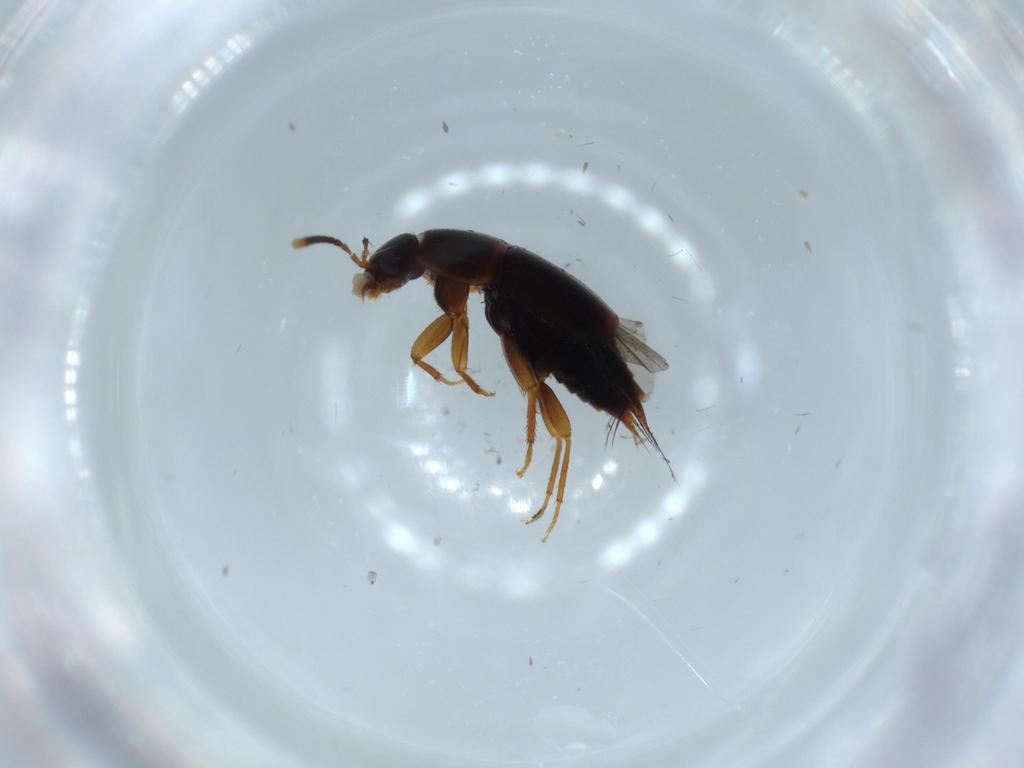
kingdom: Animalia
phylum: Arthropoda
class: Insecta
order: Coleoptera
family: Staphylinidae
